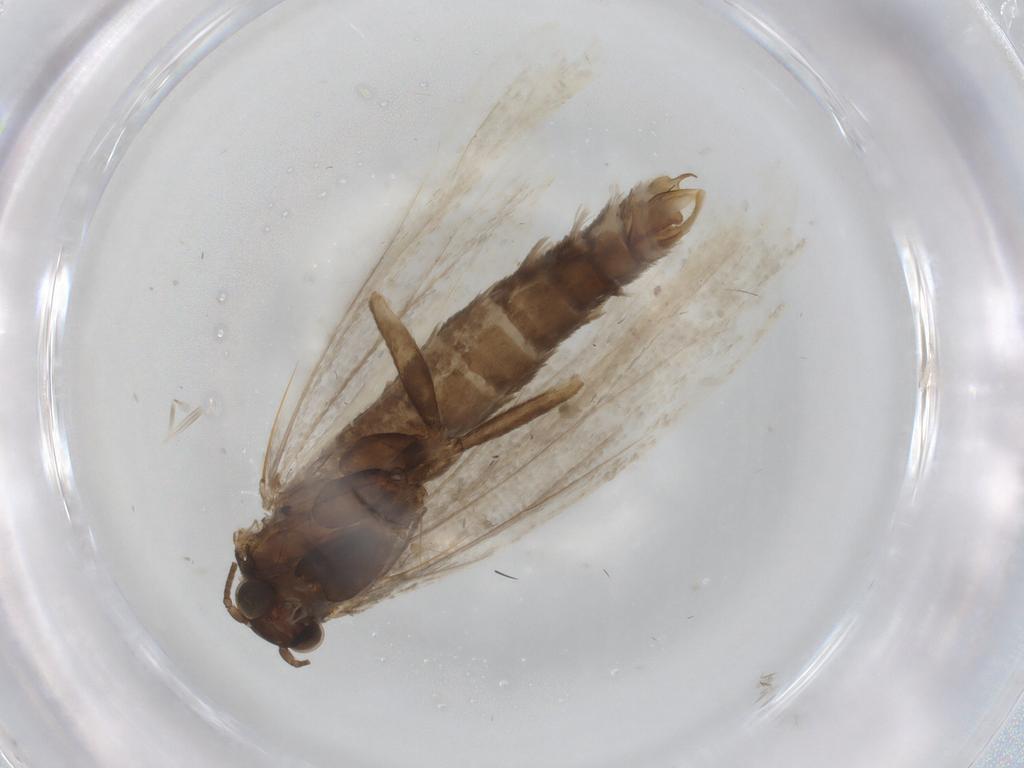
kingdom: Animalia
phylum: Arthropoda
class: Insecta
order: Lepidoptera
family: Tortricidae
